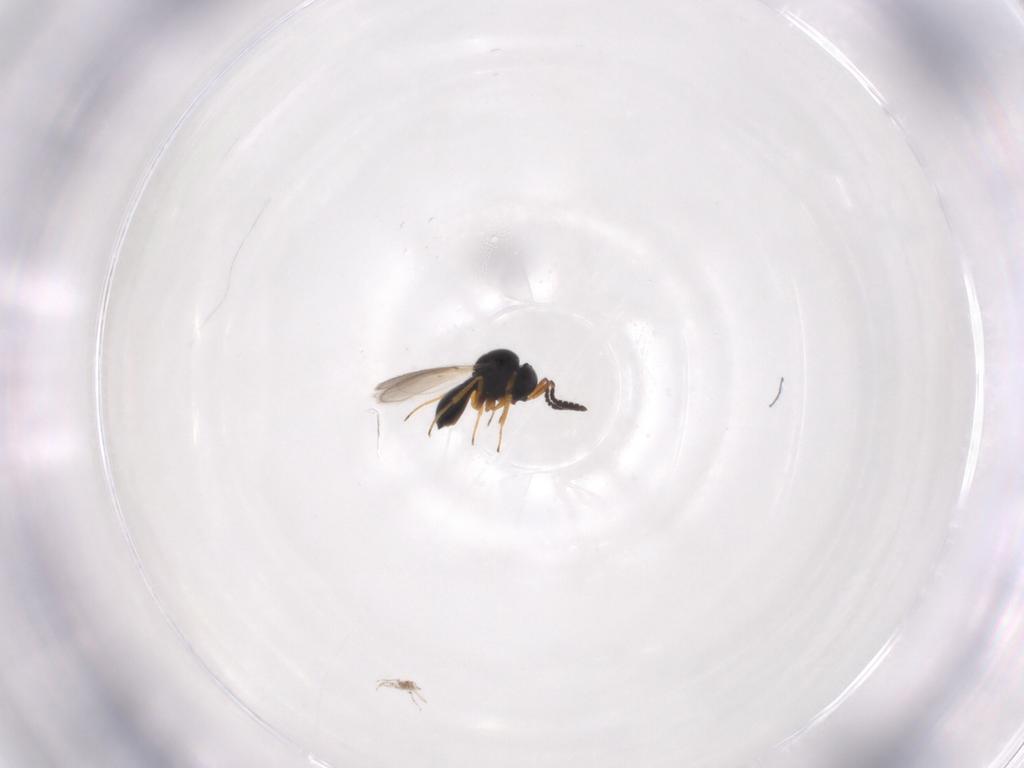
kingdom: Animalia
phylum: Arthropoda
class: Insecta
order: Hymenoptera
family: Scelionidae
